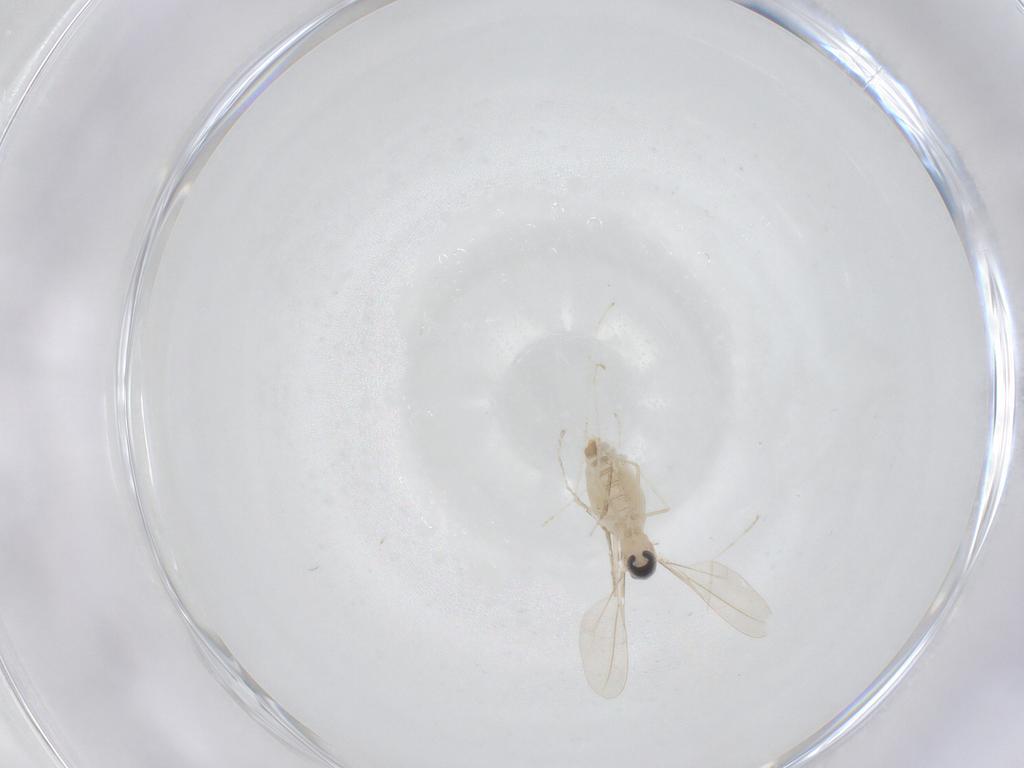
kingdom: Animalia
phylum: Arthropoda
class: Insecta
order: Diptera
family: Cecidomyiidae
